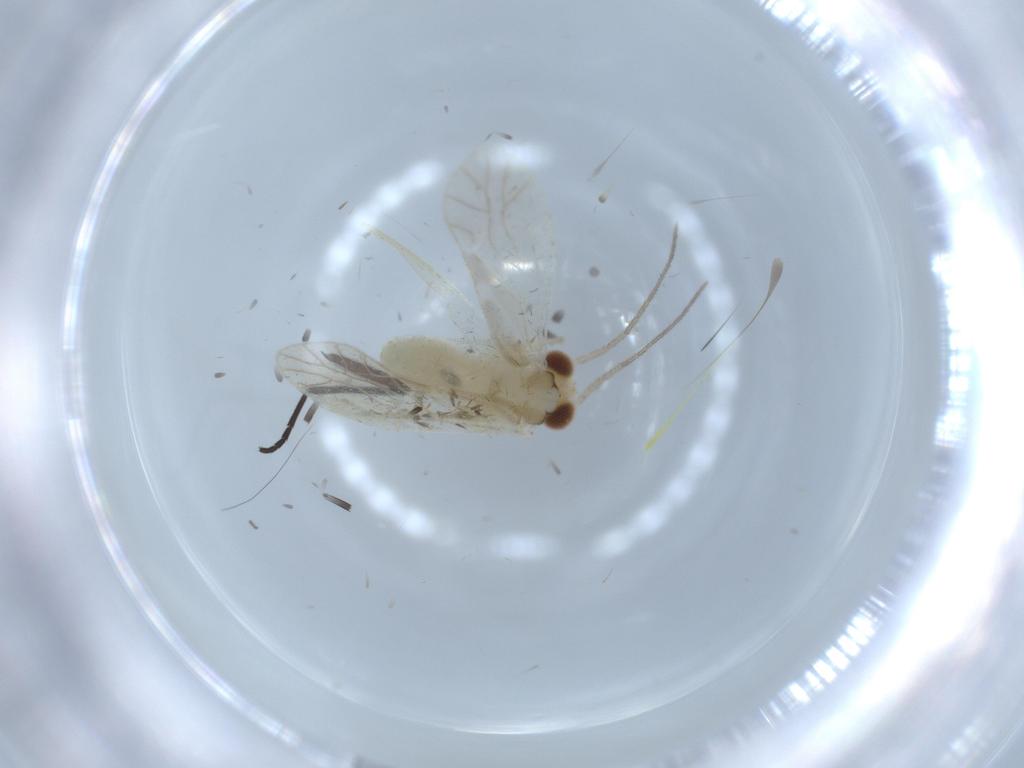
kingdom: Animalia
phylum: Arthropoda
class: Insecta
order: Psocodea
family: Caeciliusidae
